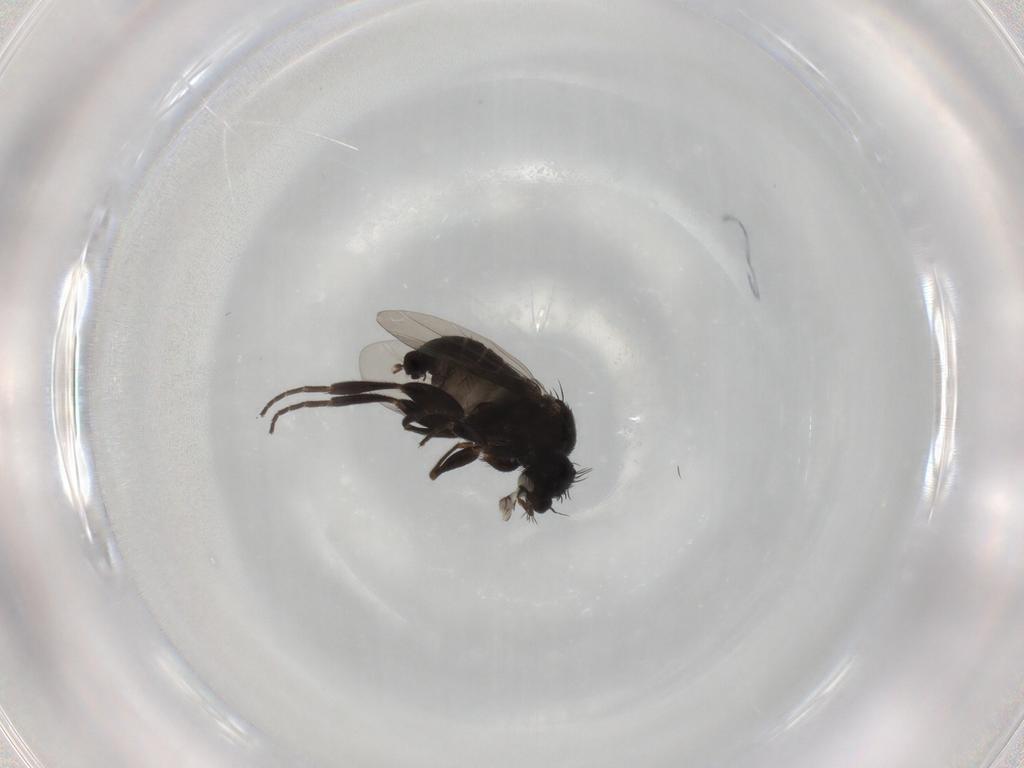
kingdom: Animalia
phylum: Arthropoda
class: Insecta
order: Diptera
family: Phoridae
